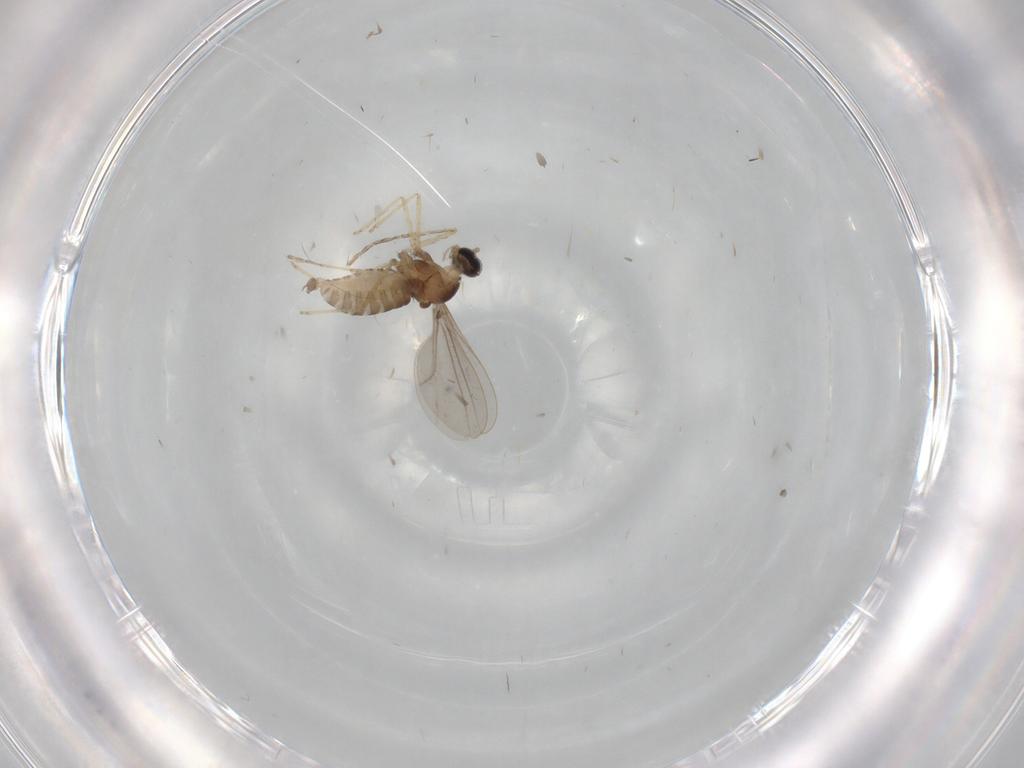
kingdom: Animalia
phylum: Arthropoda
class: Insecta
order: Diptera
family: Cecidomyiidae
